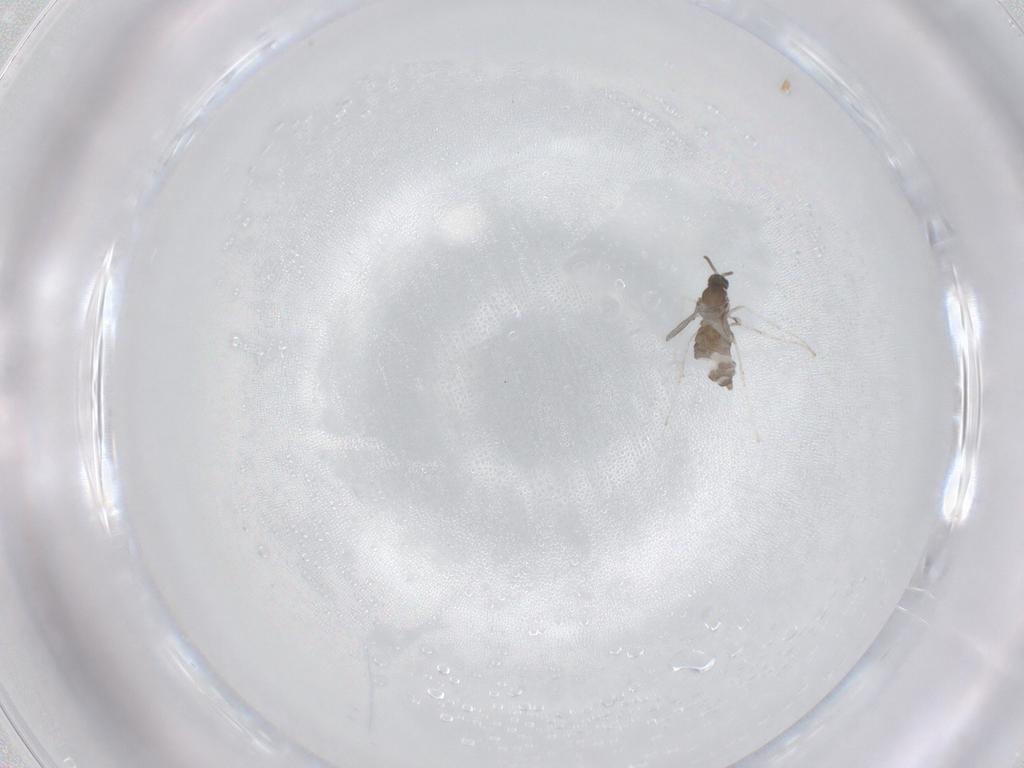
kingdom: Animalia
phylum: Arthropoda
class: Insecta
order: Diptera
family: Cecidomyiidae
